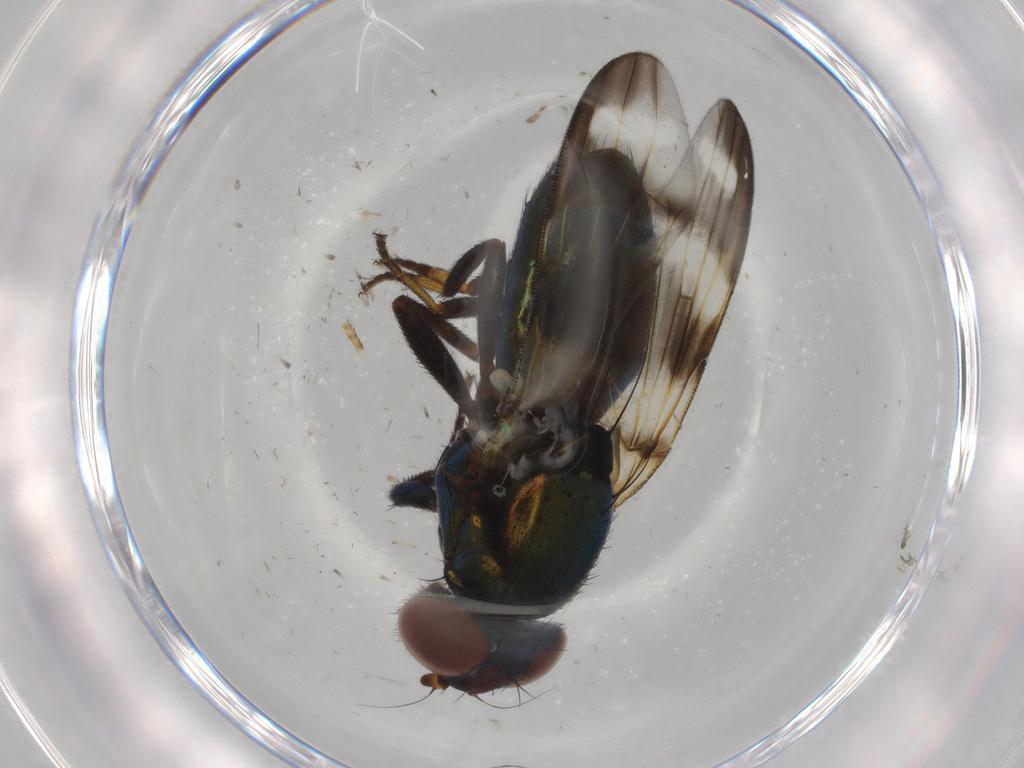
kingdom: Animalia
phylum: Arthropoda
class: Insecta
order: Diptera
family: Ulidiidae
